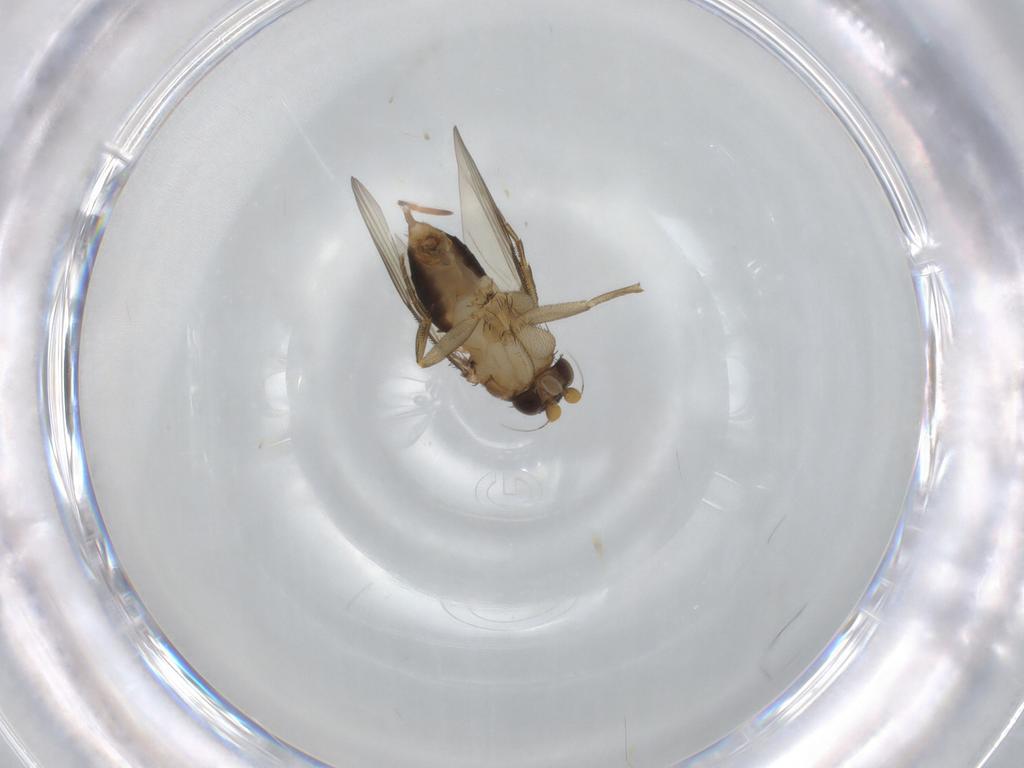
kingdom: Animalia
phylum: Arthropoda
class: Insecta
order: Diptera
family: Phoridae
